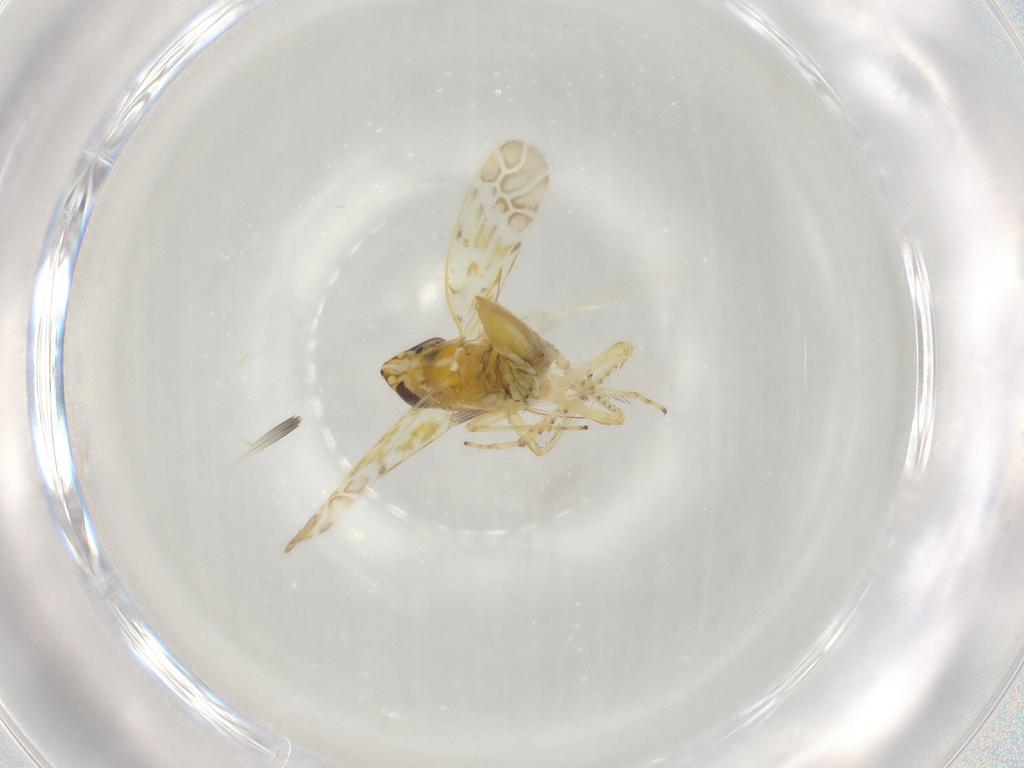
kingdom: Animalia
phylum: Arthropoda
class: Insecta
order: Hemiptera
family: Cicadellidae
